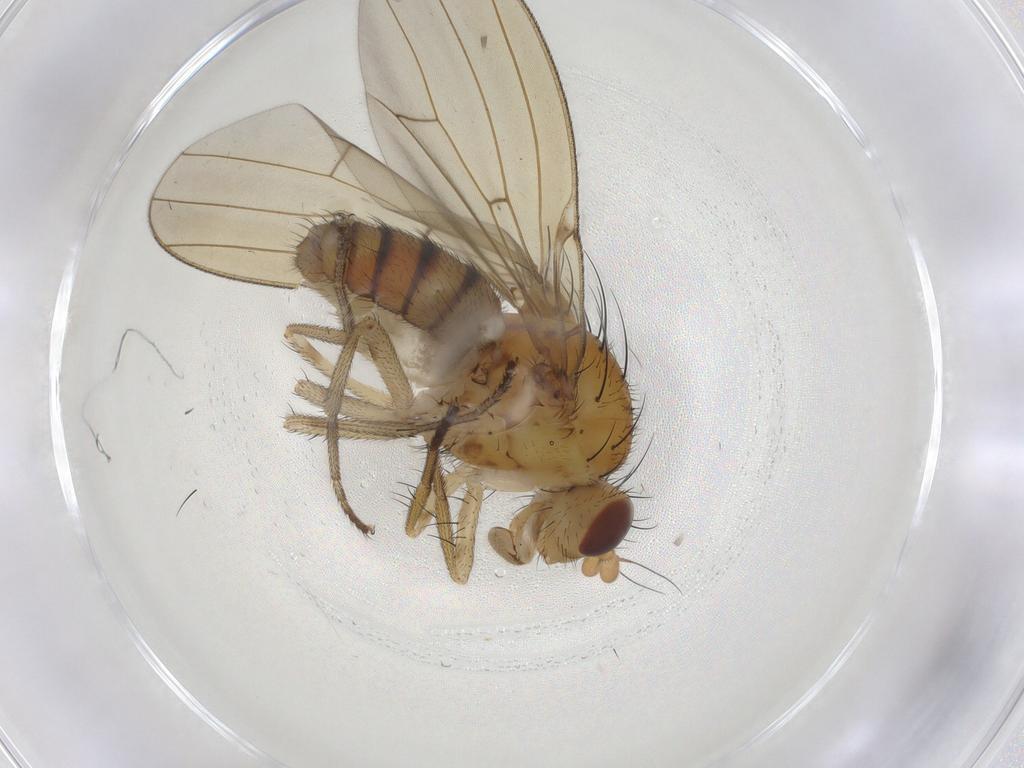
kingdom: Animalia
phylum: Arthropoda
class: Insecta
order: Diptera
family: Lauxaniidae
